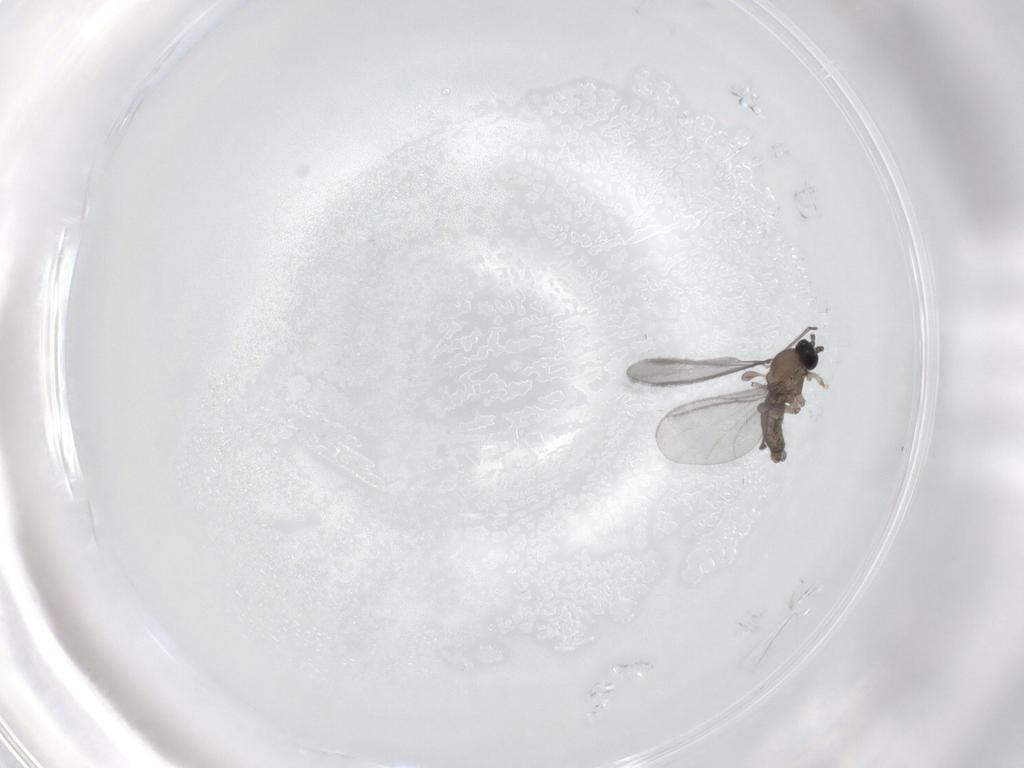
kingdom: Animalia
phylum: Arthropoda
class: Insecta
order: Diptera
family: Sciaridae
